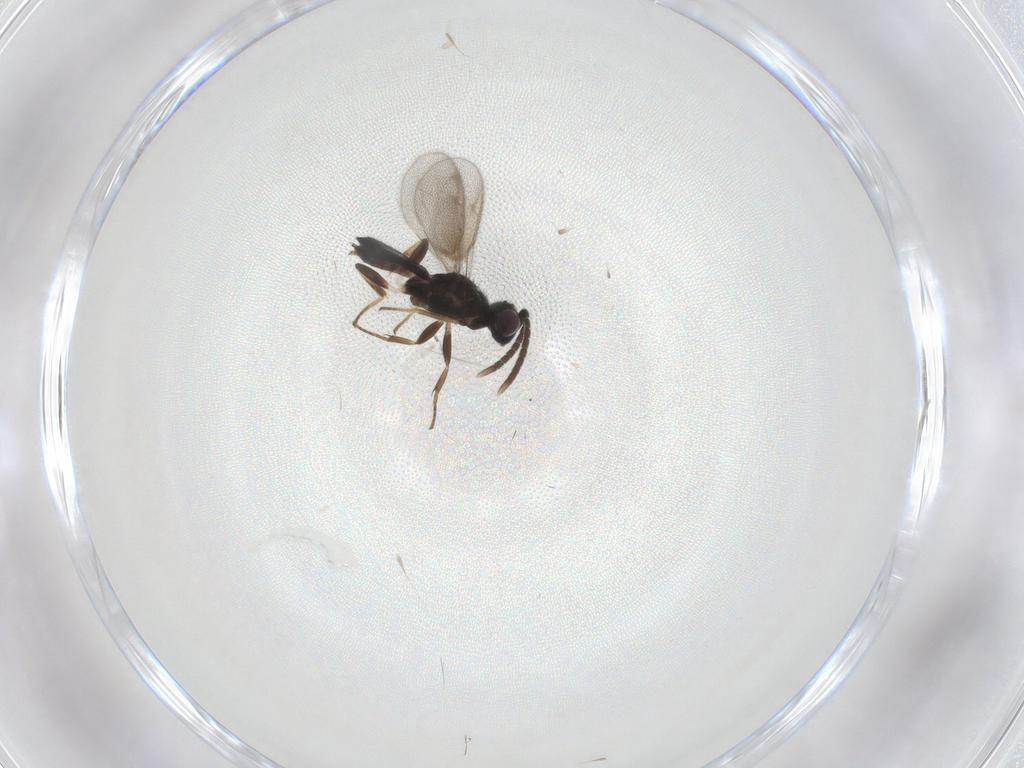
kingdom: Animalia
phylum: Arthropoda
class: Insecta
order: Hymenoptera
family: Eupelmidae
